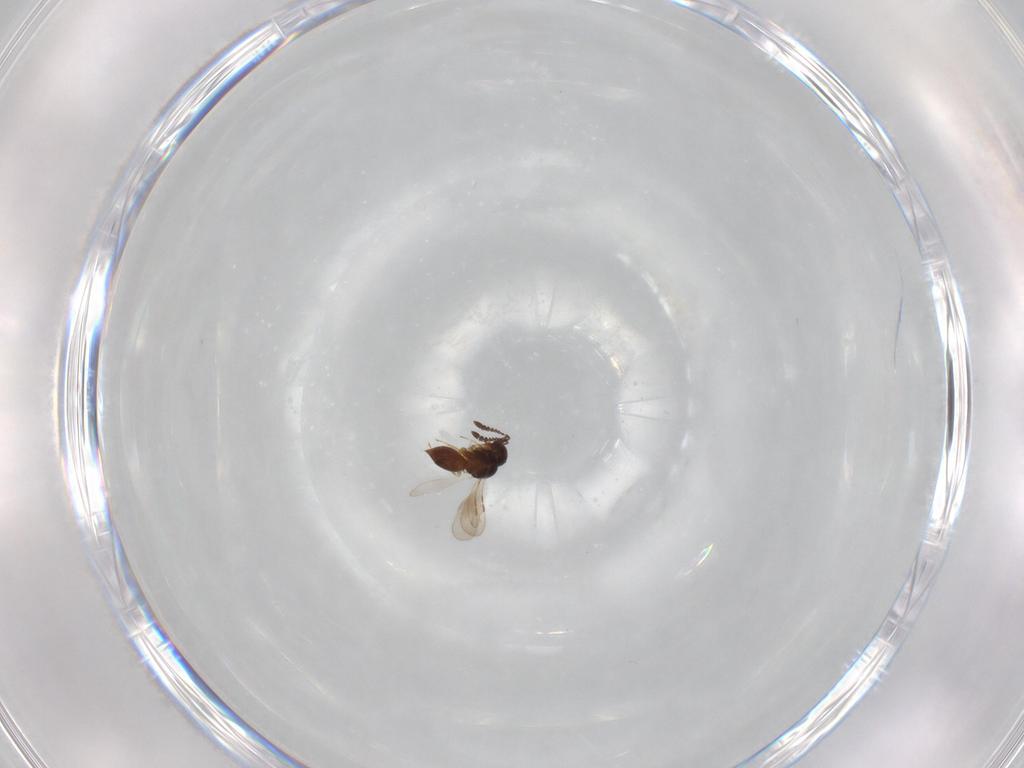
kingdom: Animalia
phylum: Arthropoda
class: Insecta
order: Hymenoptera
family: Ceraphronidae
